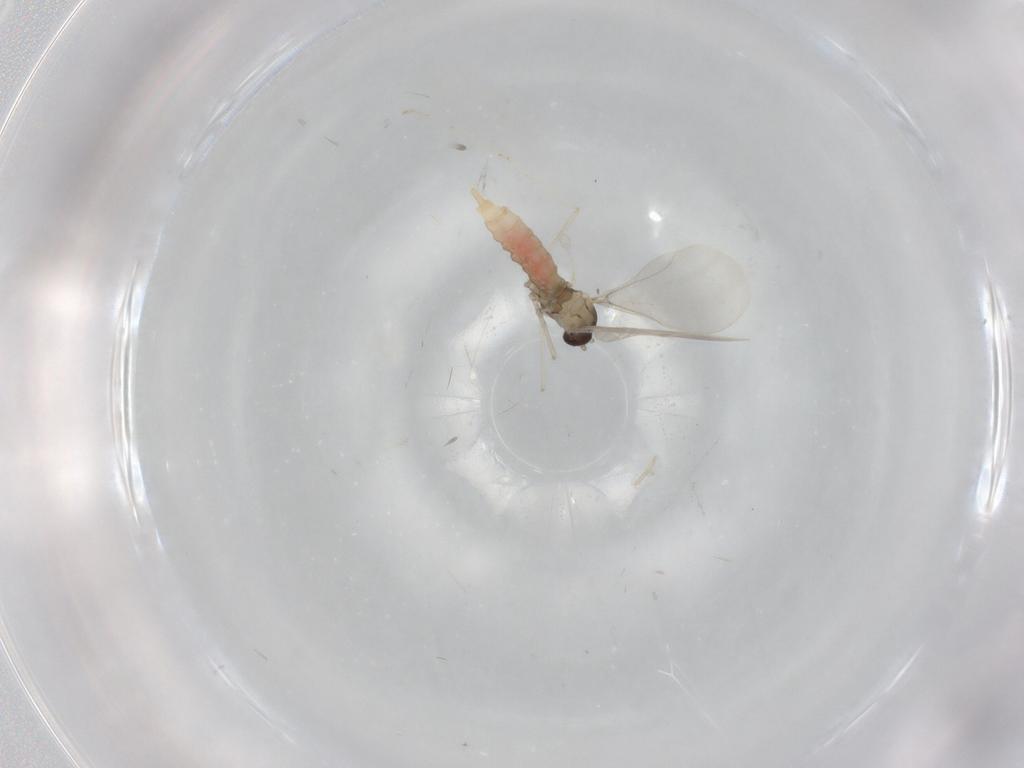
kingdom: Animalia
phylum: Arthropoda
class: Insecta
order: Diptera
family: Cecidomyiidae
